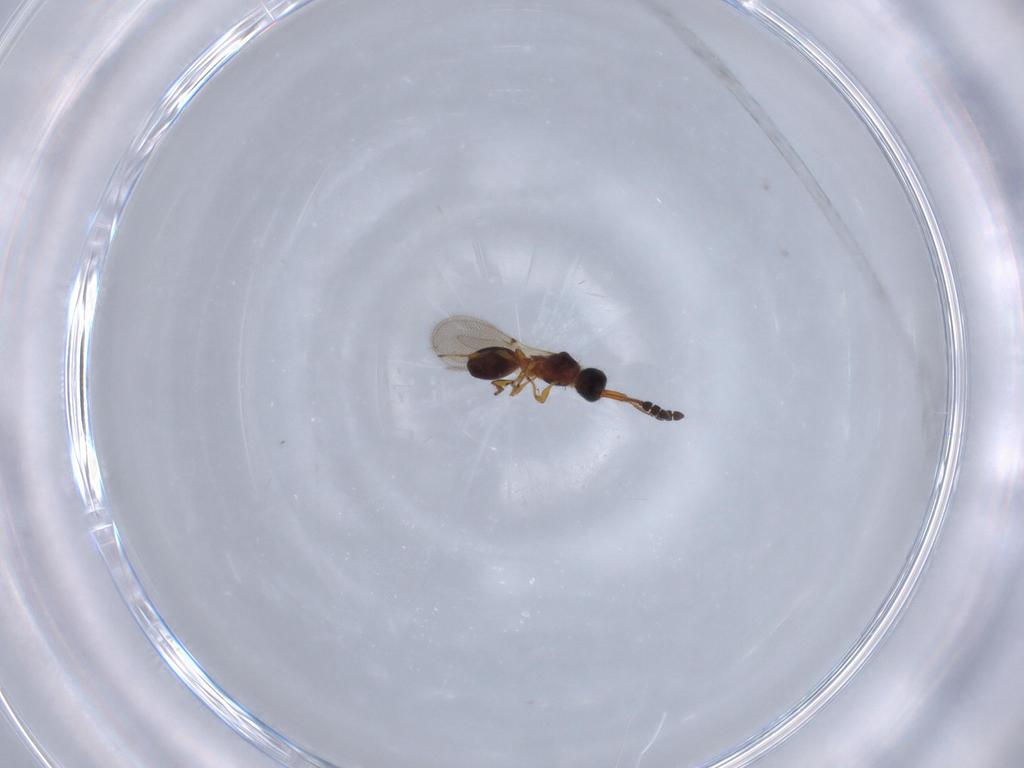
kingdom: Animalia
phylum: Arthropoda
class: Insecta
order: Hymenoptera
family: Diapriidae
